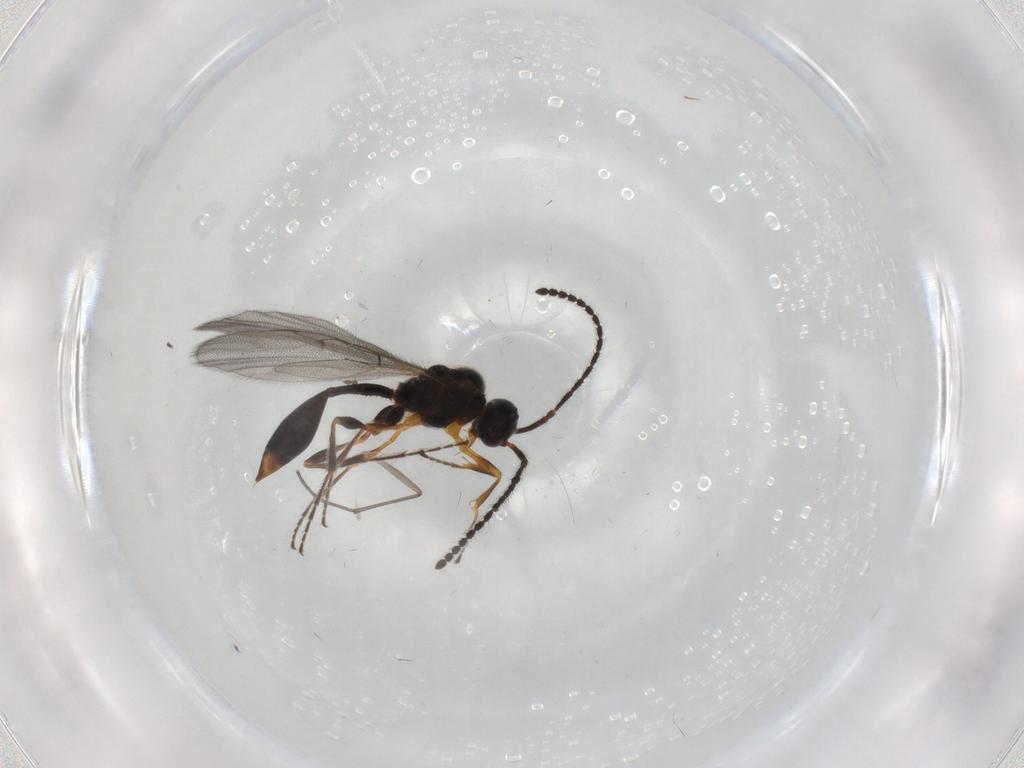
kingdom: Animalia
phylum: Arthropoda
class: Insecta
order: Hymenoptera
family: Diapriidae
